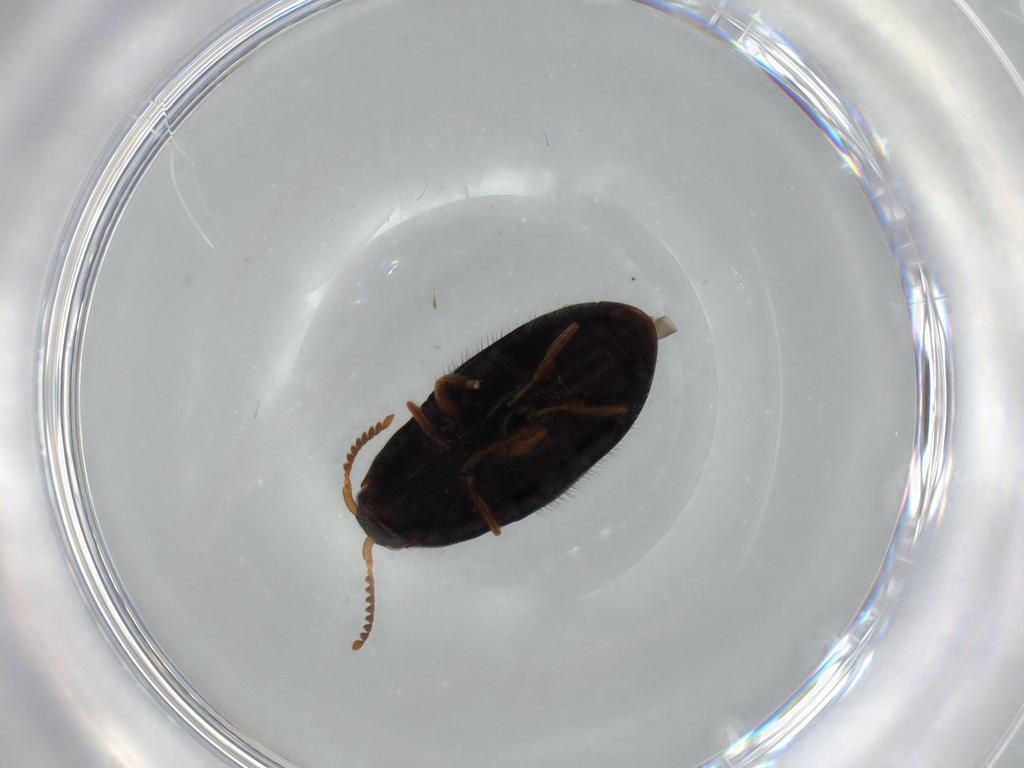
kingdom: Animalia
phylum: Arthropoda
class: Insecta
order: Coleoptera
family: Elateridae
